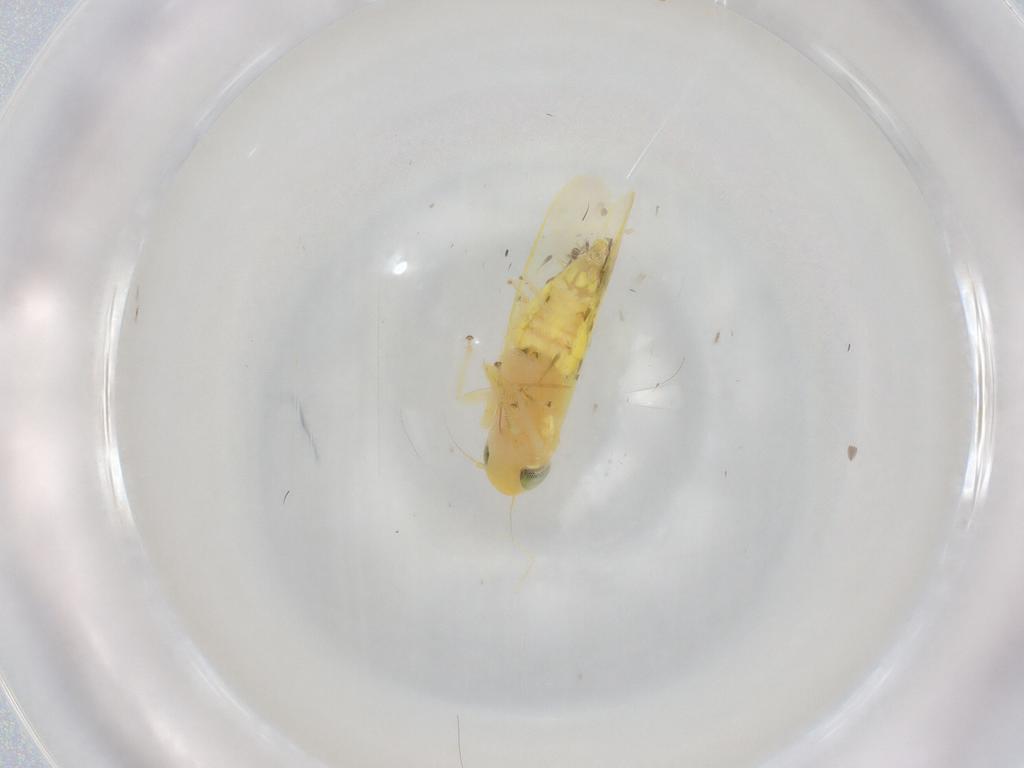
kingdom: Animalia
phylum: Arthropoda
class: Insecta
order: Hemiptera
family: Cicadellidae
